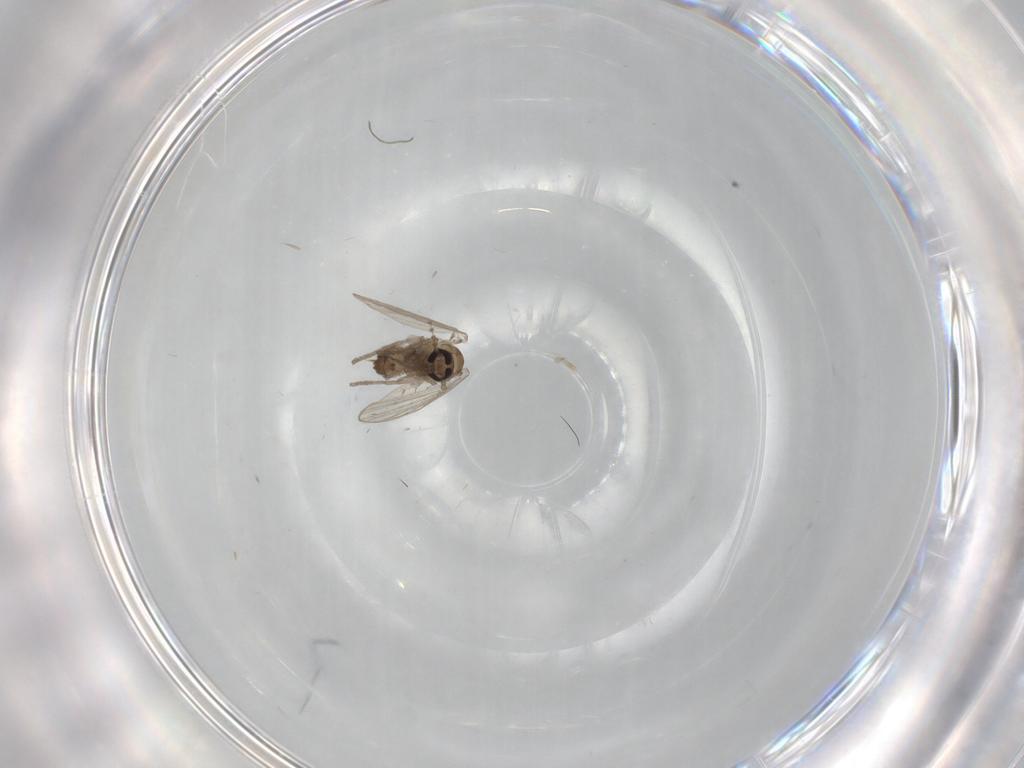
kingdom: Animalia
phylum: Arthropoda
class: Insecta
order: Diptera
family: Psychodidae
